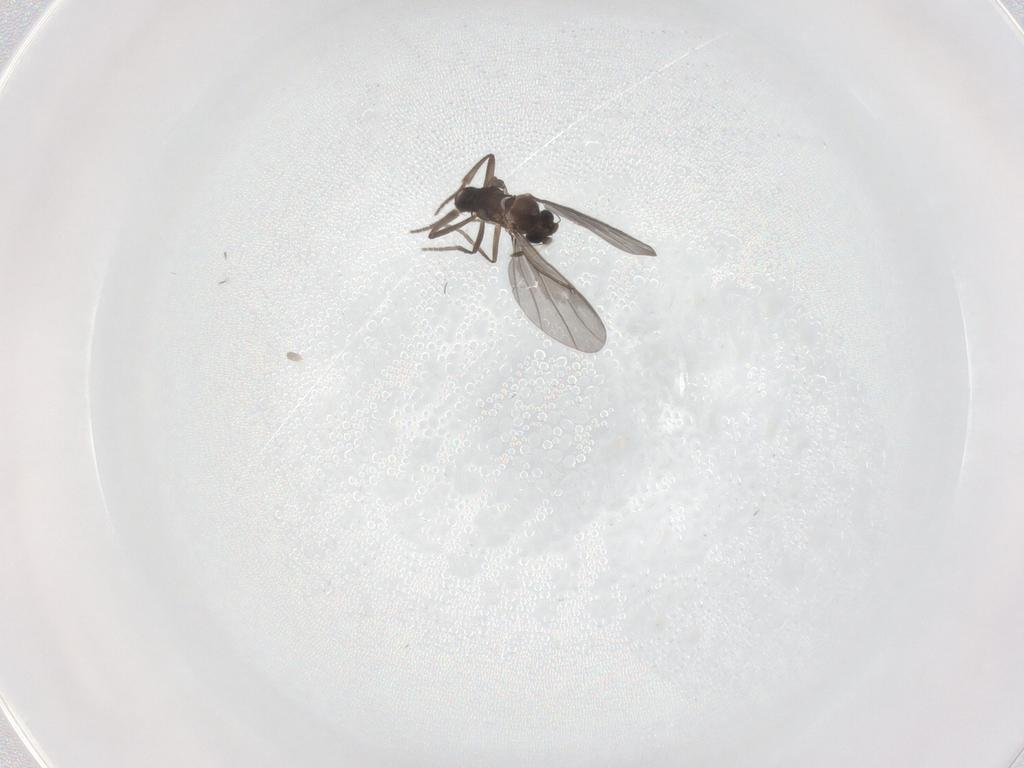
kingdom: Animalia
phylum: Arthropoda
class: Insecta
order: Diptera
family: Phoridae
